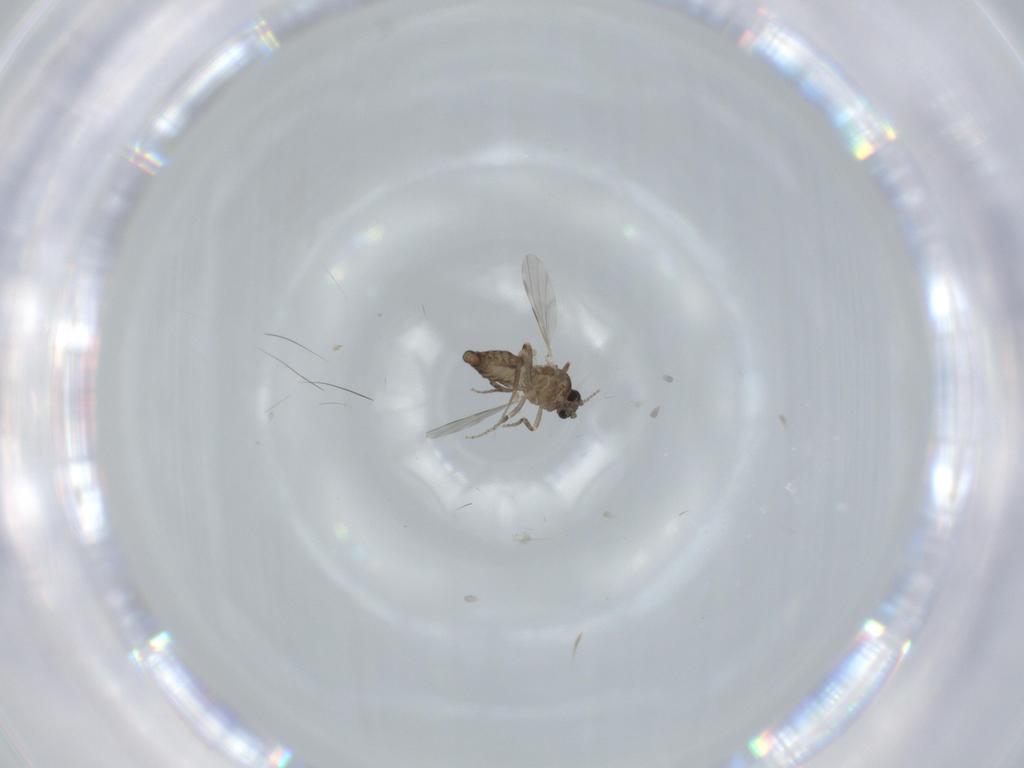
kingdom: Animalia
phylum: Arthropoda
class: Insecta
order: Diptera
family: Ceratopogonidae
